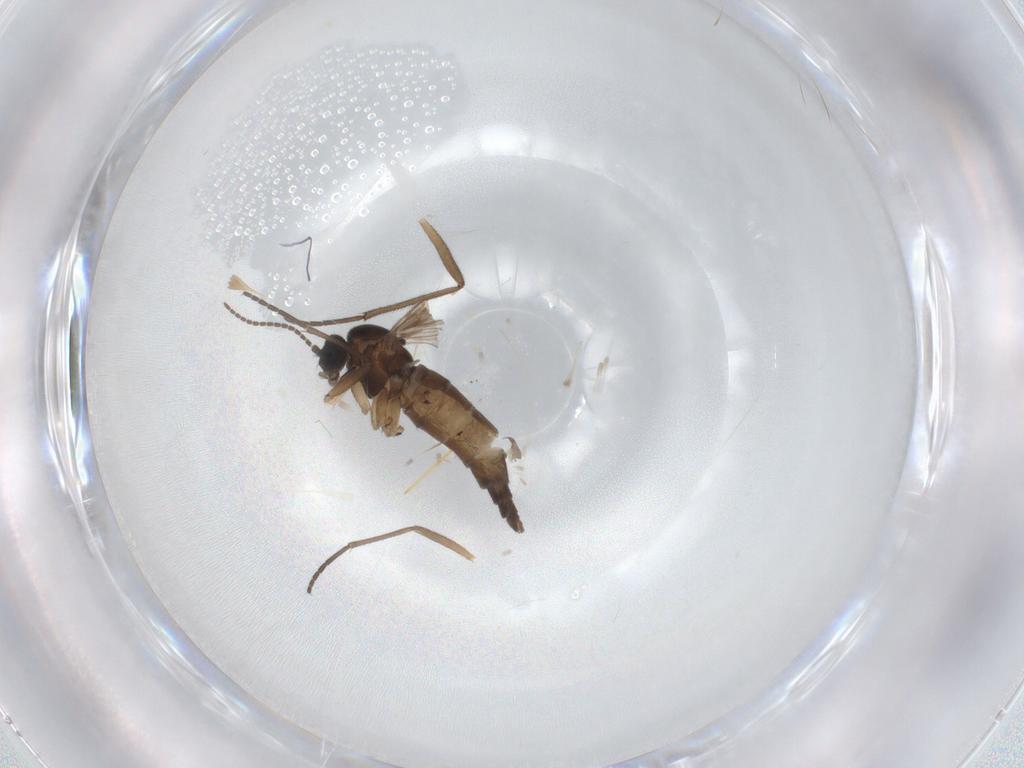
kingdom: Animalia
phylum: Arthropoda
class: Insecta
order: Diptera
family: Sciaridae
